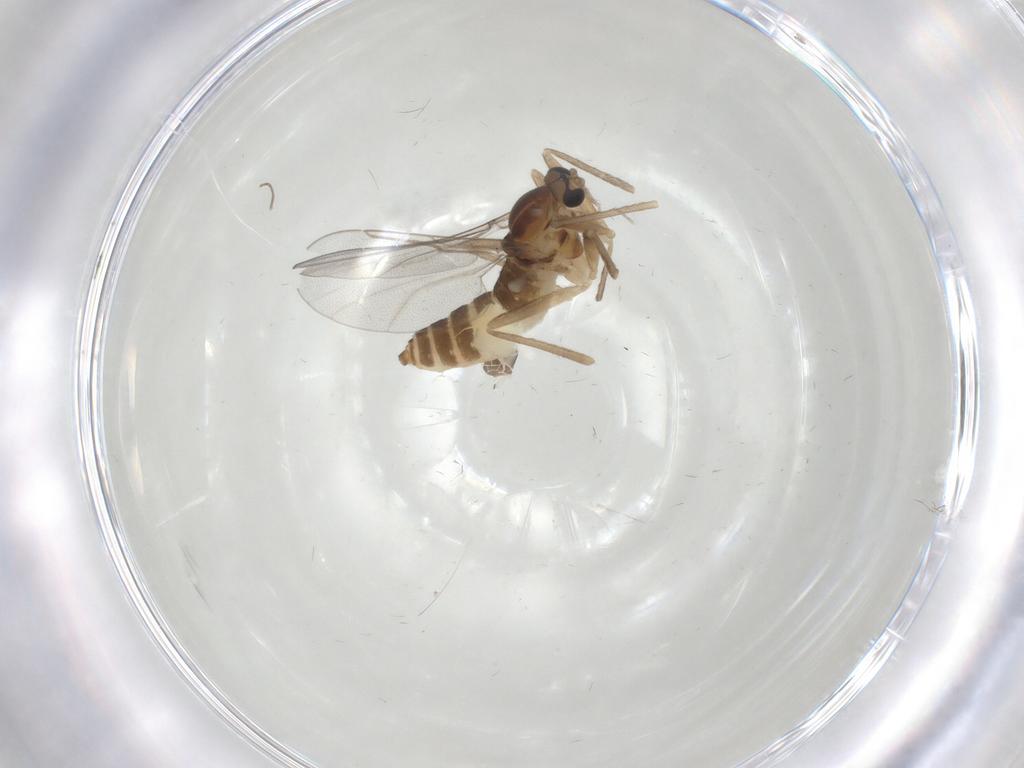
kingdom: Animalia
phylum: Arthropoda
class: Insecta
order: Diptera
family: Cecidomyiidae
